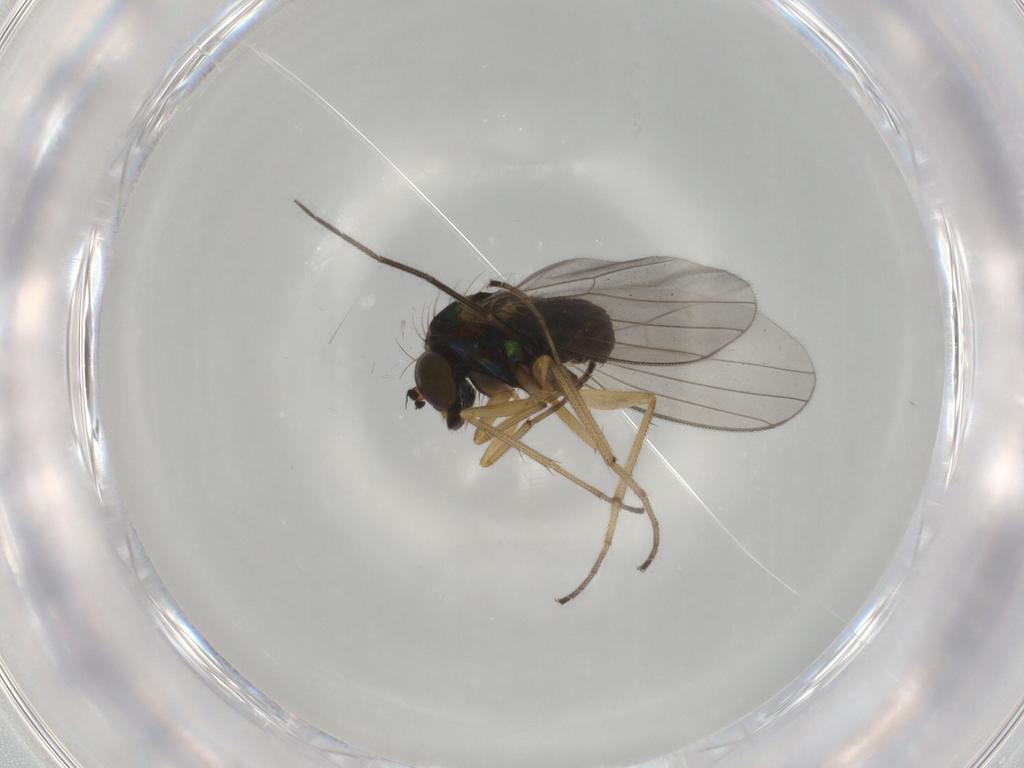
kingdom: Animalia
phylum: Arthropoda
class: Insecta
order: Diptera
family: Dolichopodidae
